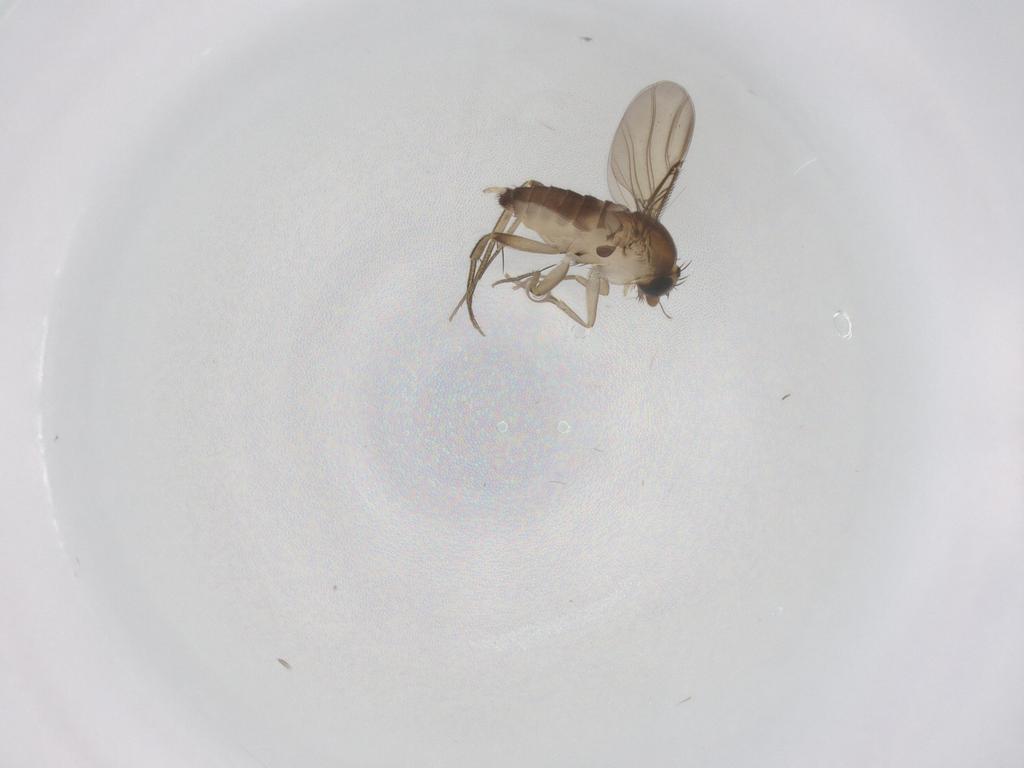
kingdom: Animalia
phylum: Arthropoda
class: Insecta
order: Diptera
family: Phoridae
